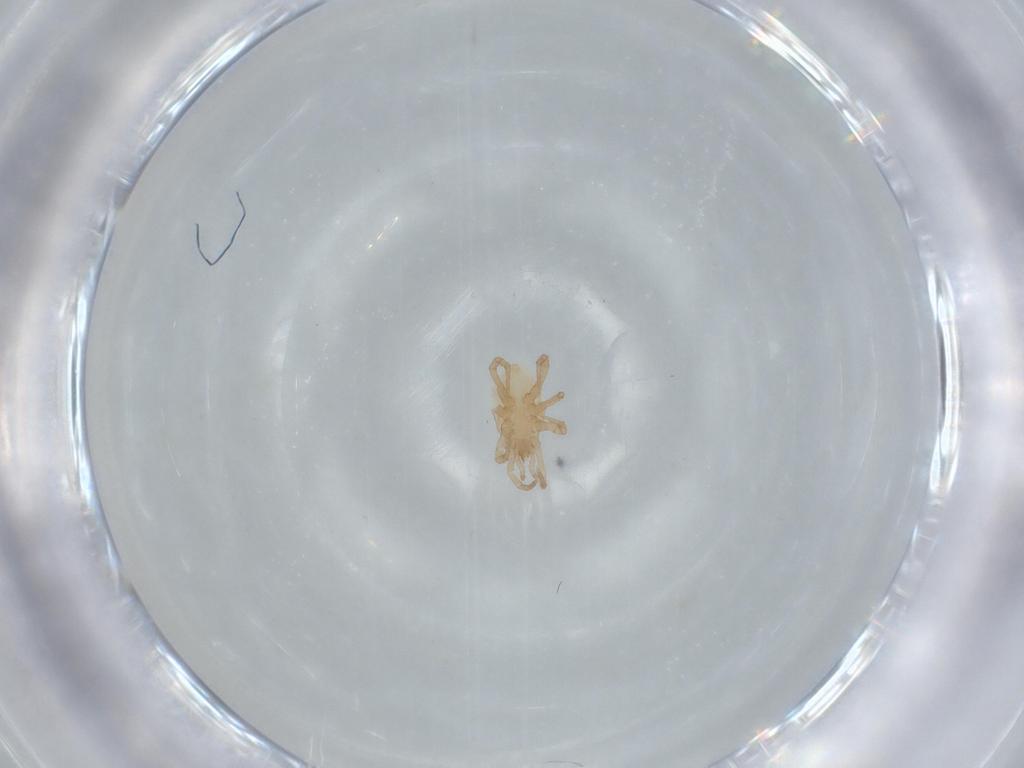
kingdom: Animalia
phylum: Arthropoda
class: Arachnida
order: Mesostigmata
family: Parasitidae
